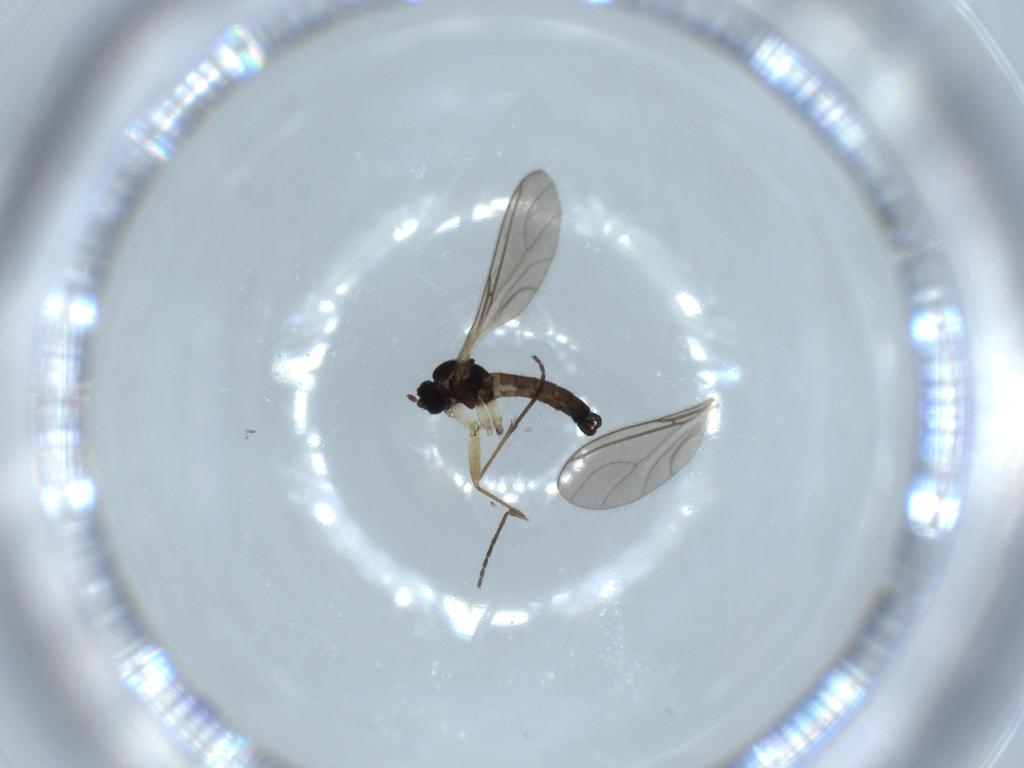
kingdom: Animalia
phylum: Arthropoda
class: Insecta
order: Diptera
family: Sciaridae
